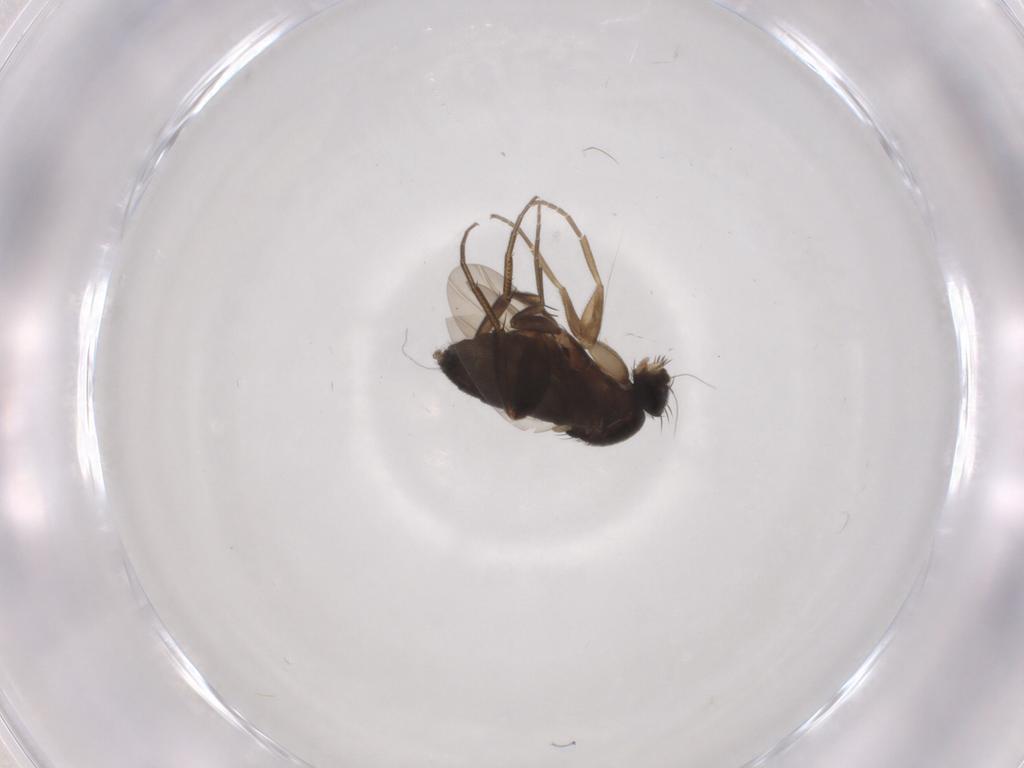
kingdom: Animalia
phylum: Arthropoda
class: Insecta
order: Diptera
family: Phoridae
